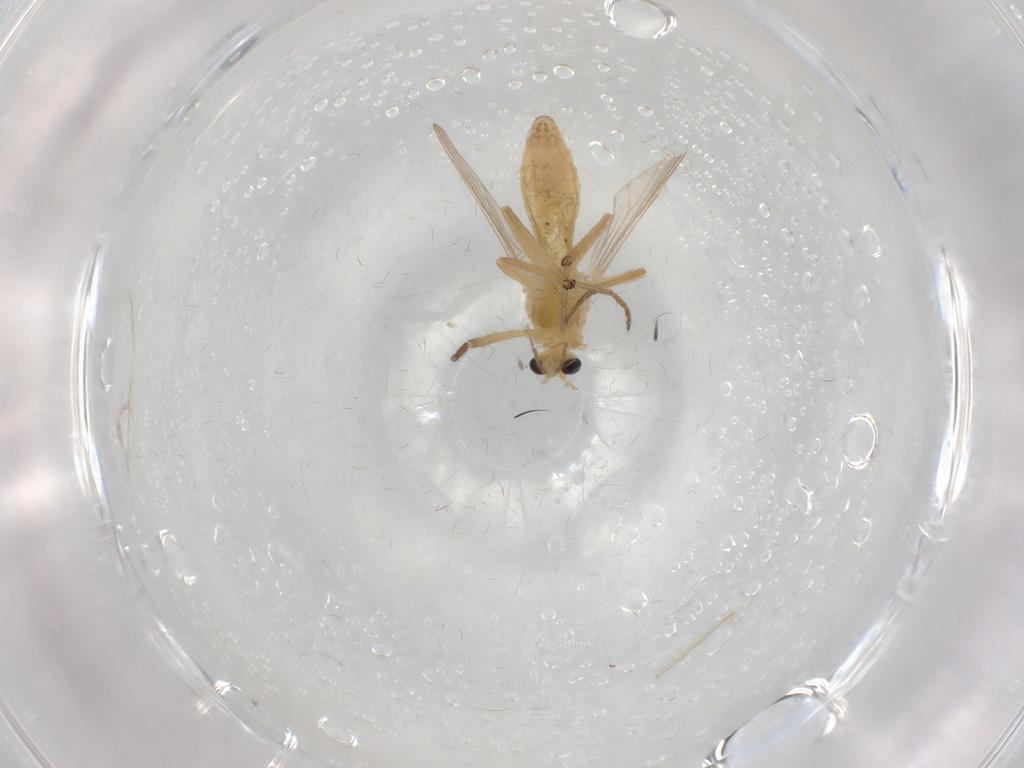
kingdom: Animalia
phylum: Arthropoda
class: Insecta
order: Diptera
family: Chironomidae
